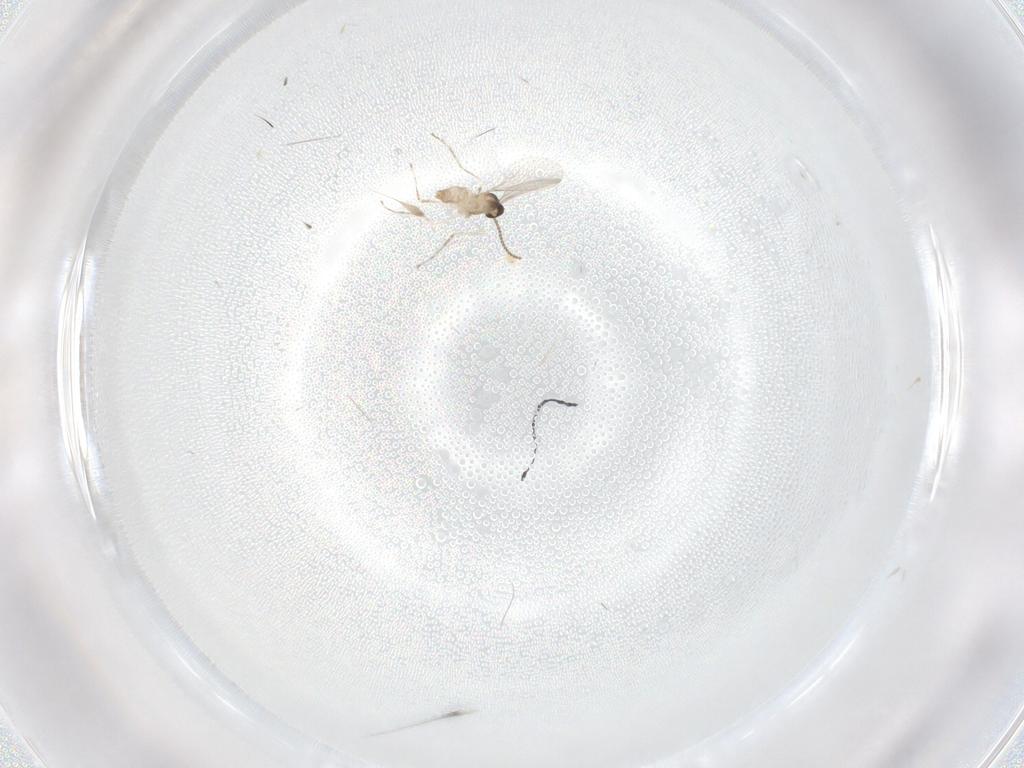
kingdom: Animalia
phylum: Arthropoda
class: Insecta
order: Diptera
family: Cecidomyiidae
